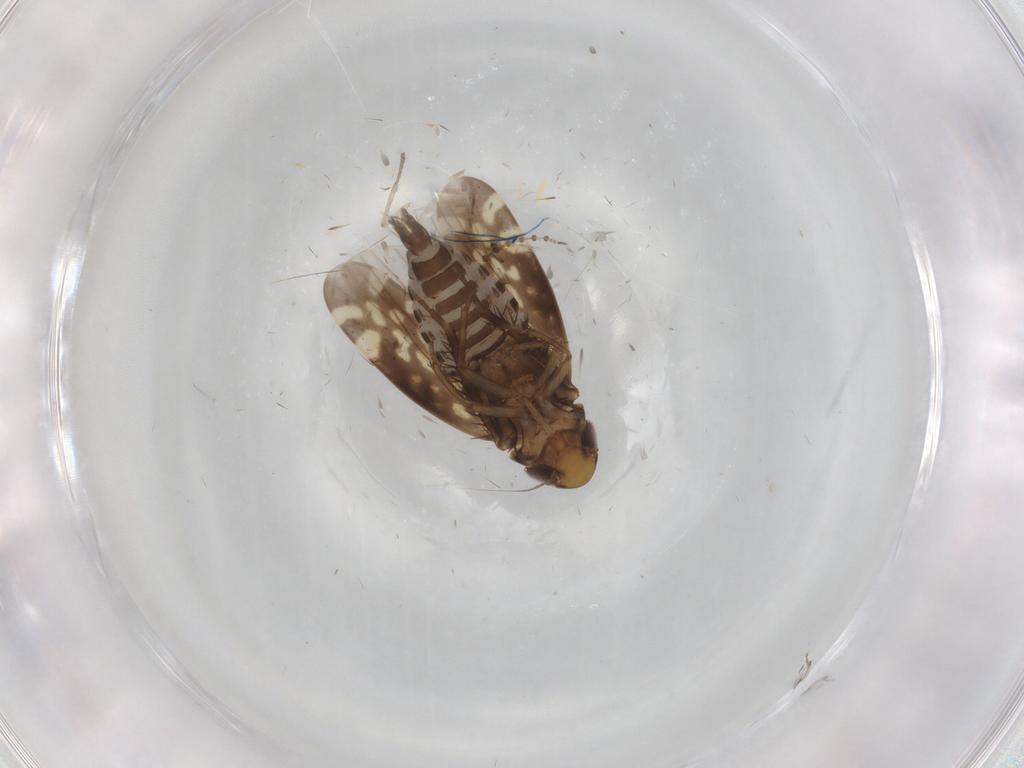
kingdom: Animalia
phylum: Arthropoda
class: Insecta
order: Hemiptera
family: Cicadellidae
